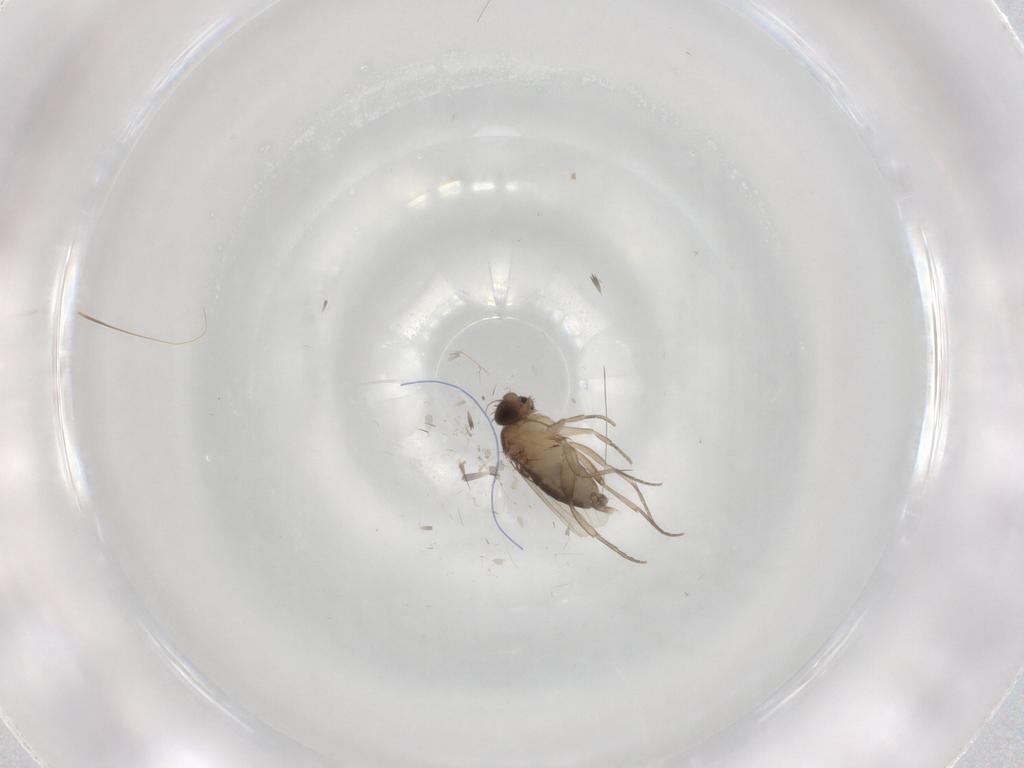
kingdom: Animalia
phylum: Arthropoda
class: Insecta
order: Diptera
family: Phoridae
